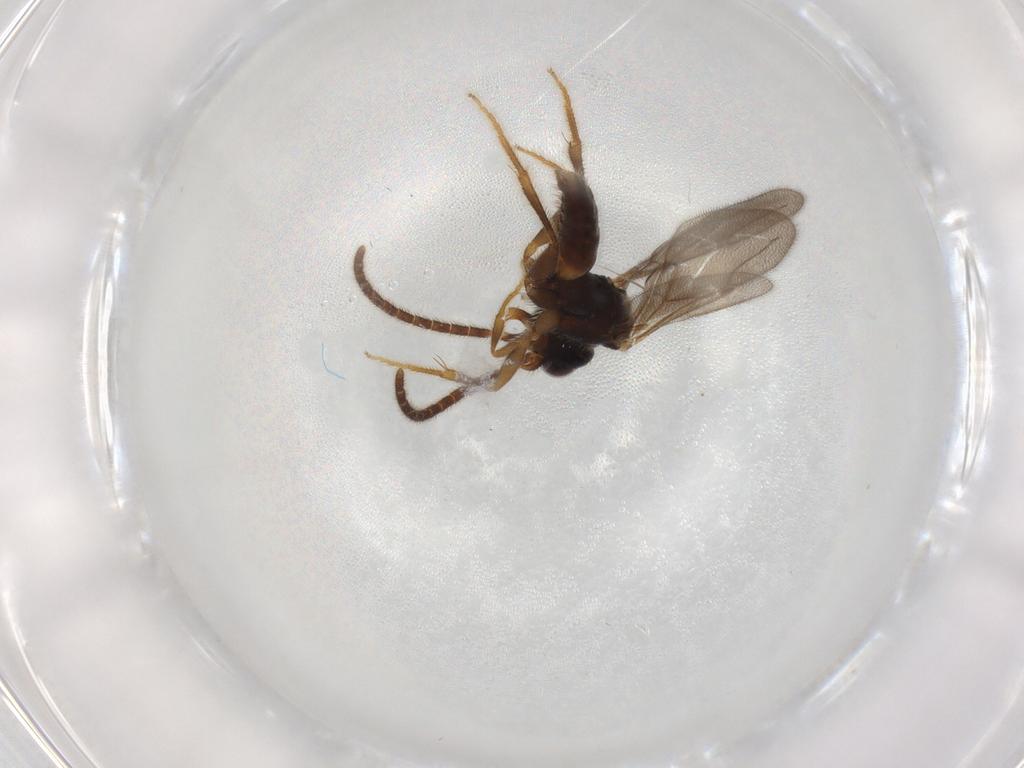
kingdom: Animalia
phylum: Arthropoda
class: Insecta
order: Hymenoptera
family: Bethylidae
